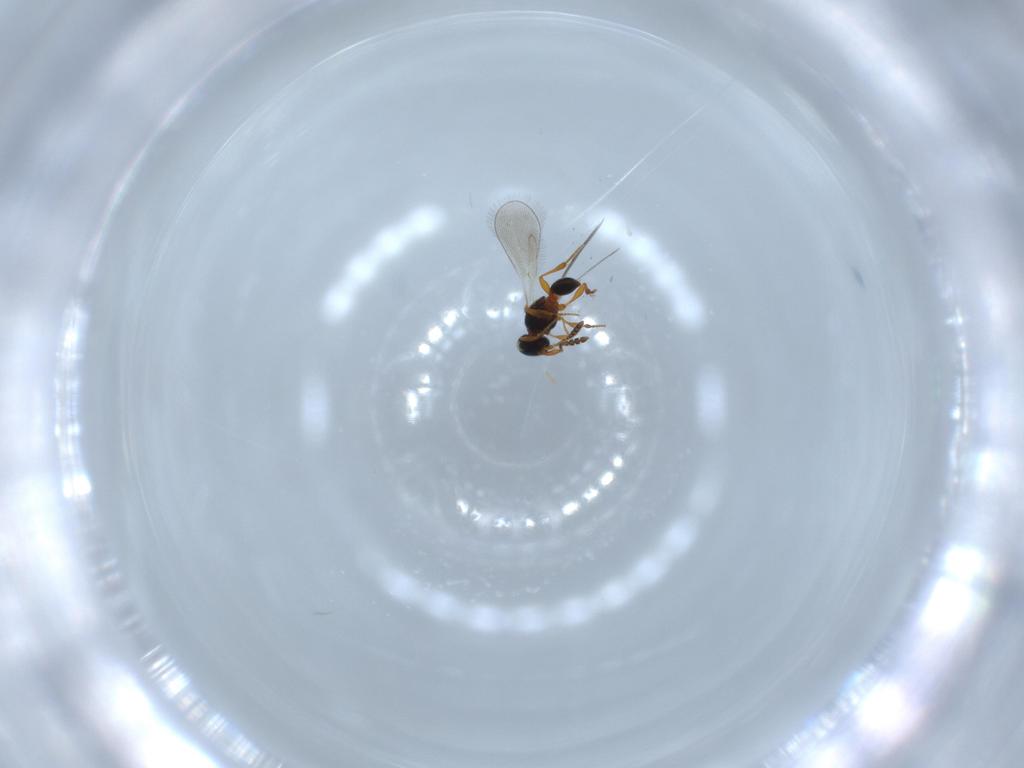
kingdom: Animalia
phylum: Arthropoda
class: Insecta
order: Hymenoptera
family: Platygastridae
